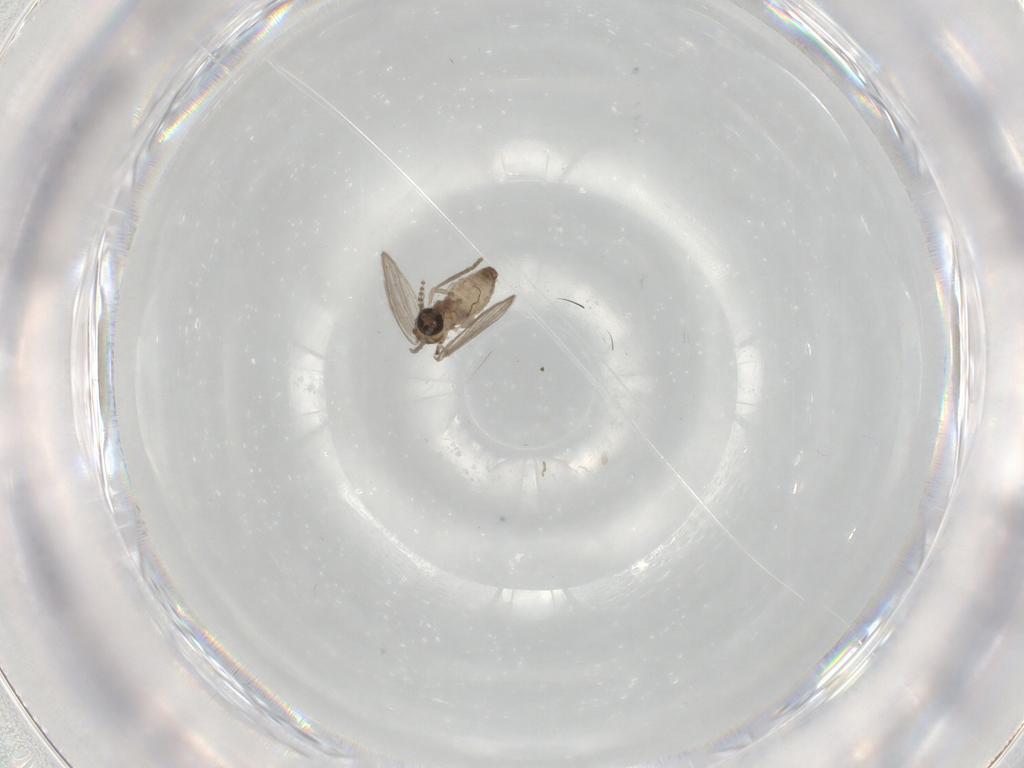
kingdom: Animalia
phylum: Arthropoda
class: Insecta
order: Diptera
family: Psychodidae
